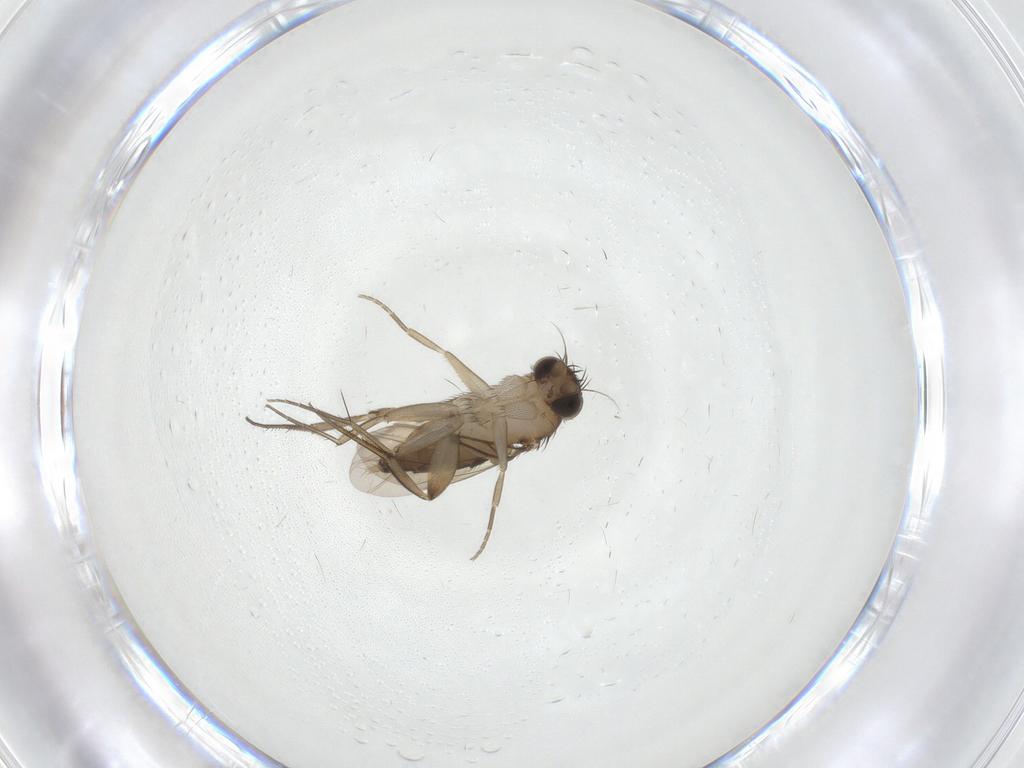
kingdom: Animalia
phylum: Arthropoda
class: Insecta
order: Diptera
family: Phoridae
